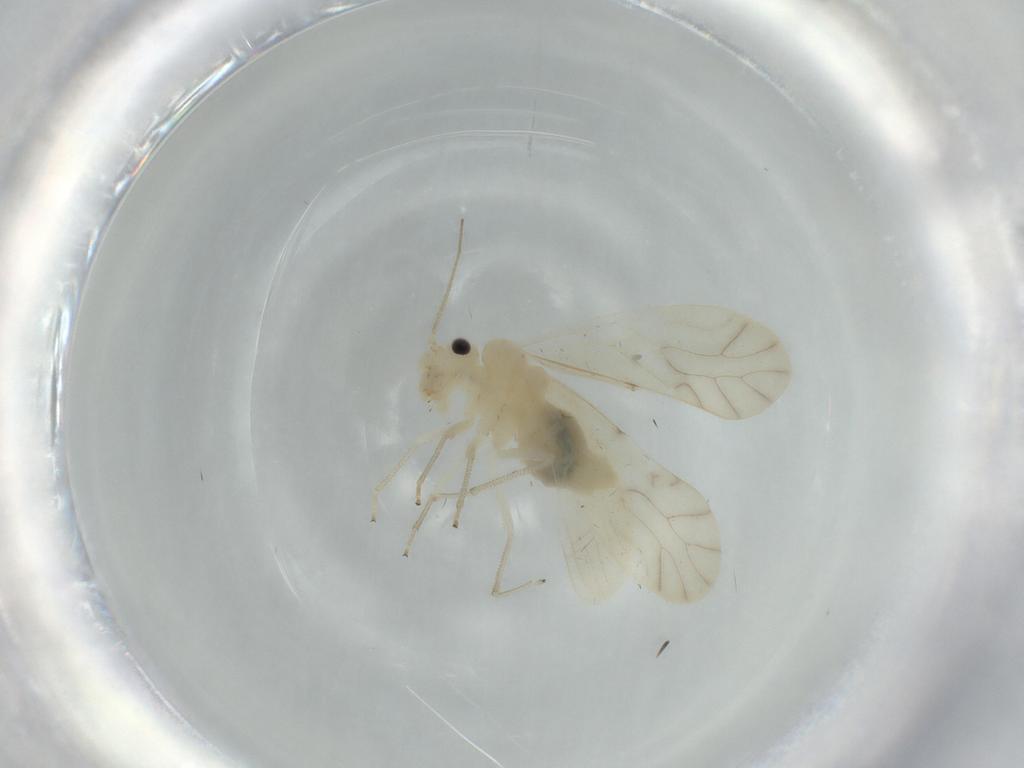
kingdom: Animalia
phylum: Arthropoda
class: Insecta
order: Psocodea
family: Caeciliusidae
